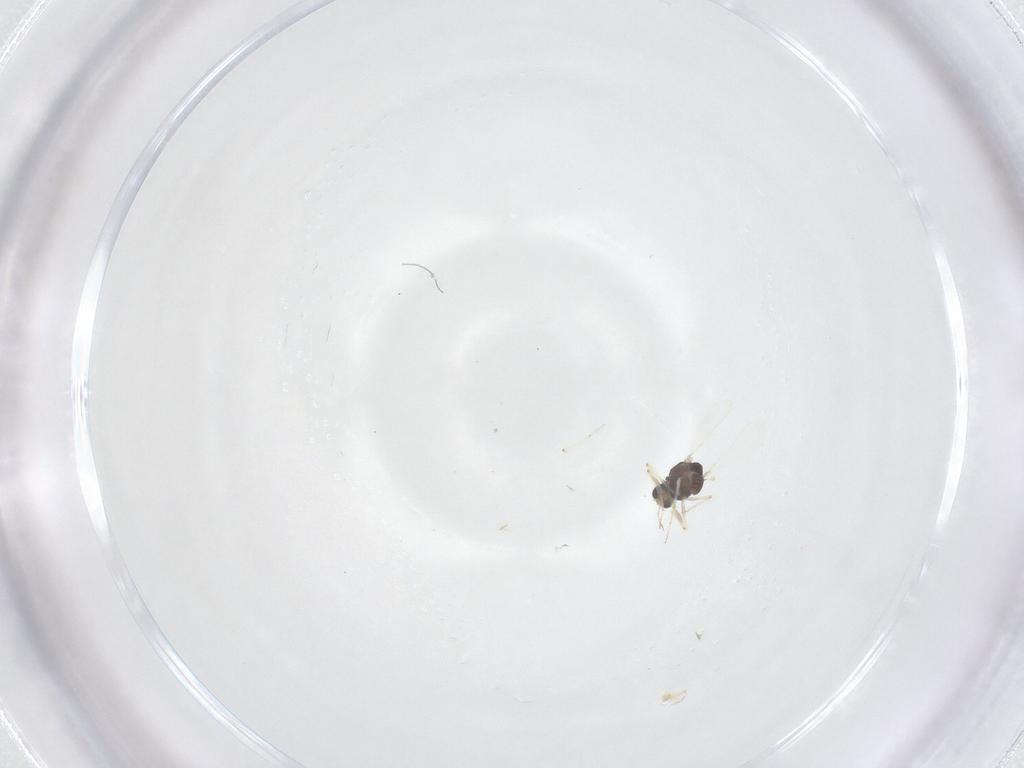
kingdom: Animalia
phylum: Arthropoda
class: Insecta
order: Diptera
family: Chironomidae
